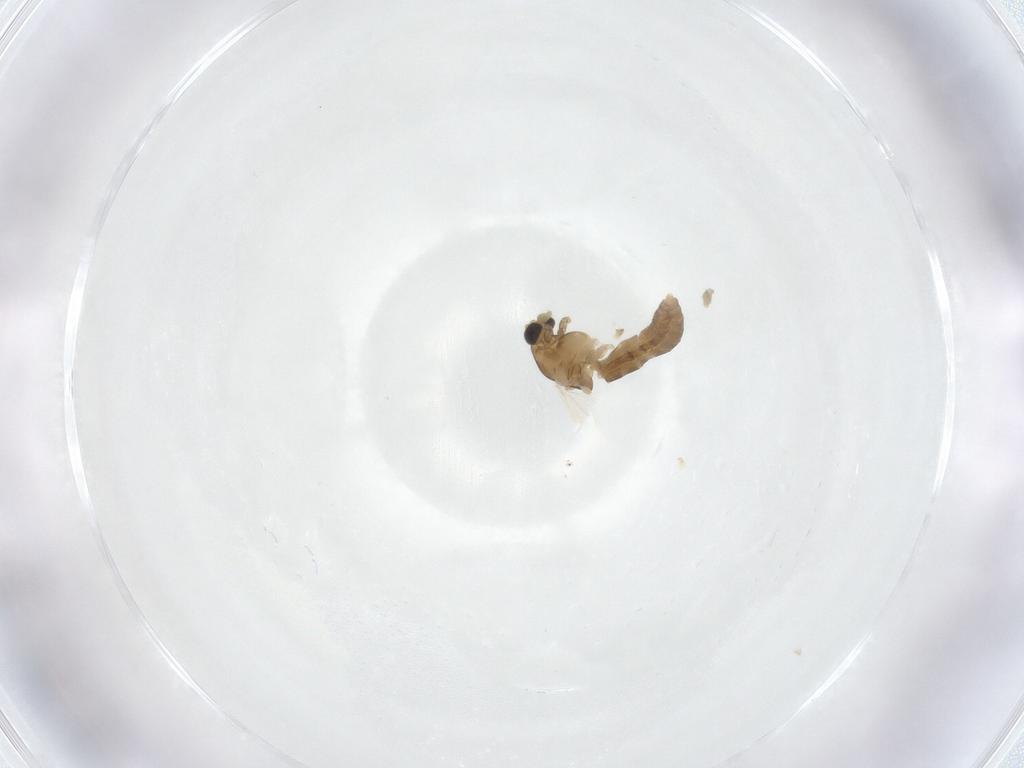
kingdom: Animalia
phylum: Arthropoda
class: Insecta
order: Diptera
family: Chironomidae
